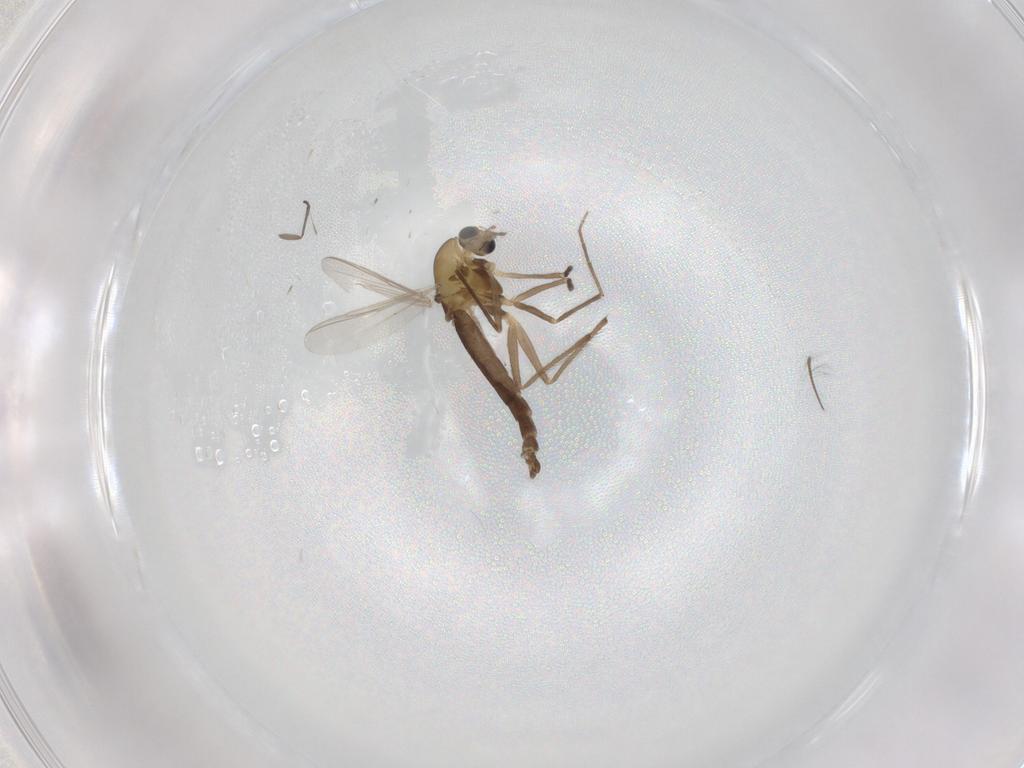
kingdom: Animalia
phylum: Arthropoda
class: Insecta
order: Diptera
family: Chironomidae
